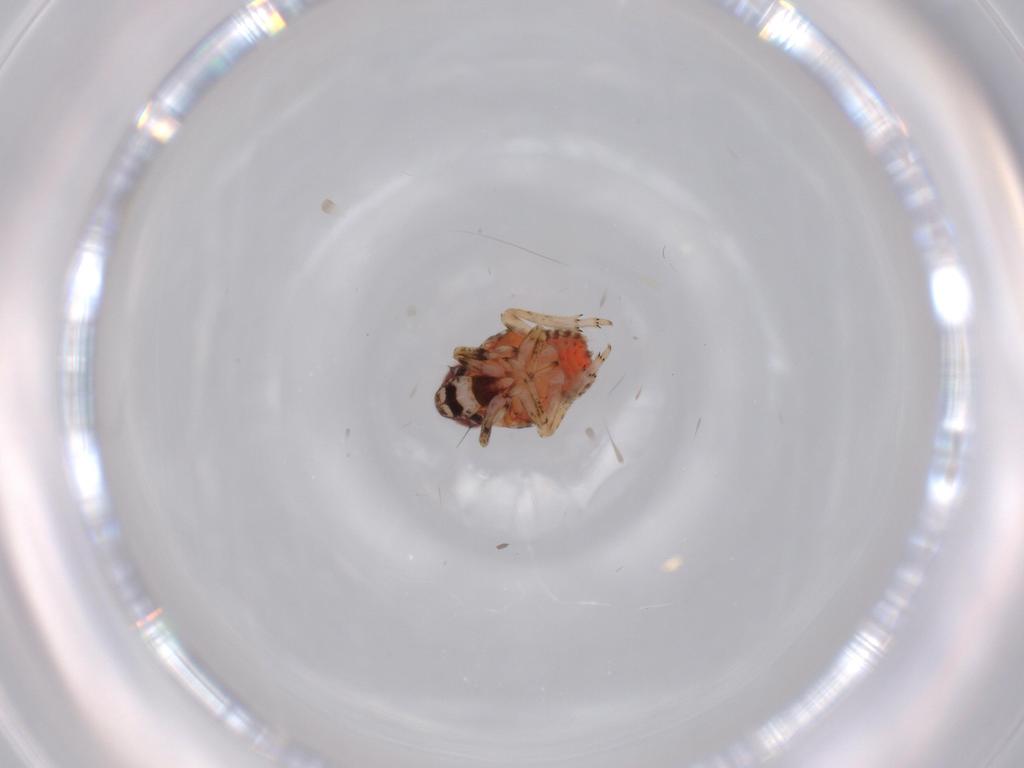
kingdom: Animalia
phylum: Arthropoda
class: Insecta
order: Hemiptera
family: Issidae
